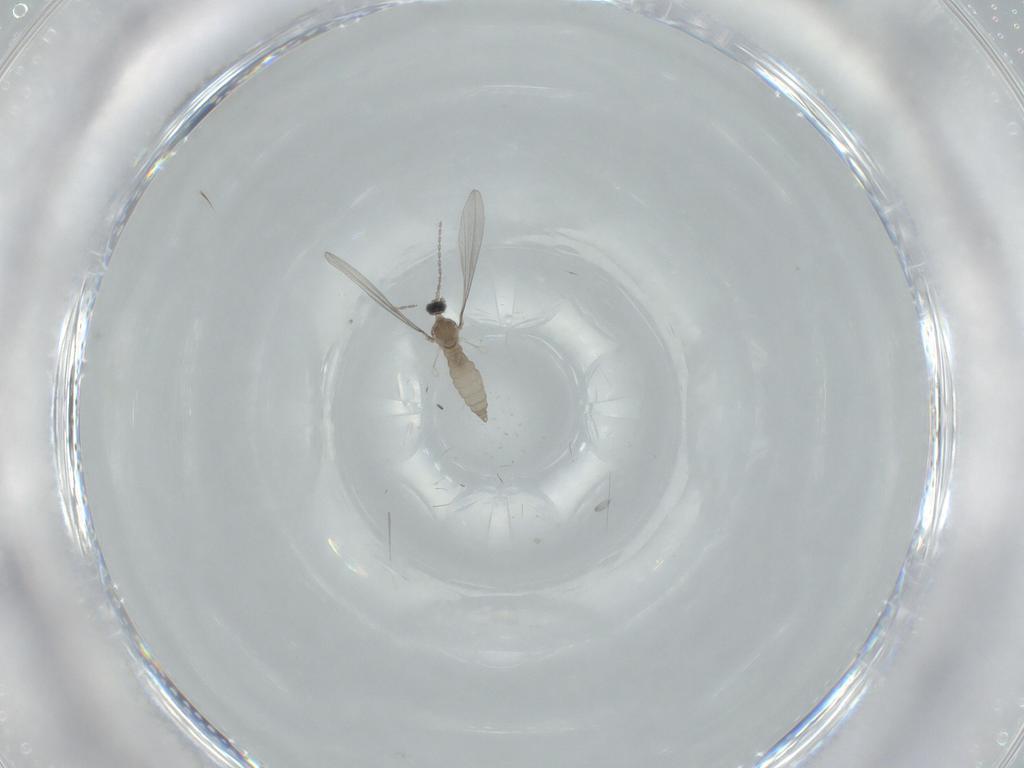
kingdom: Animalia
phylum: Arthropoda
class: Insecta
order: Diptera
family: Cecidomyiidae
